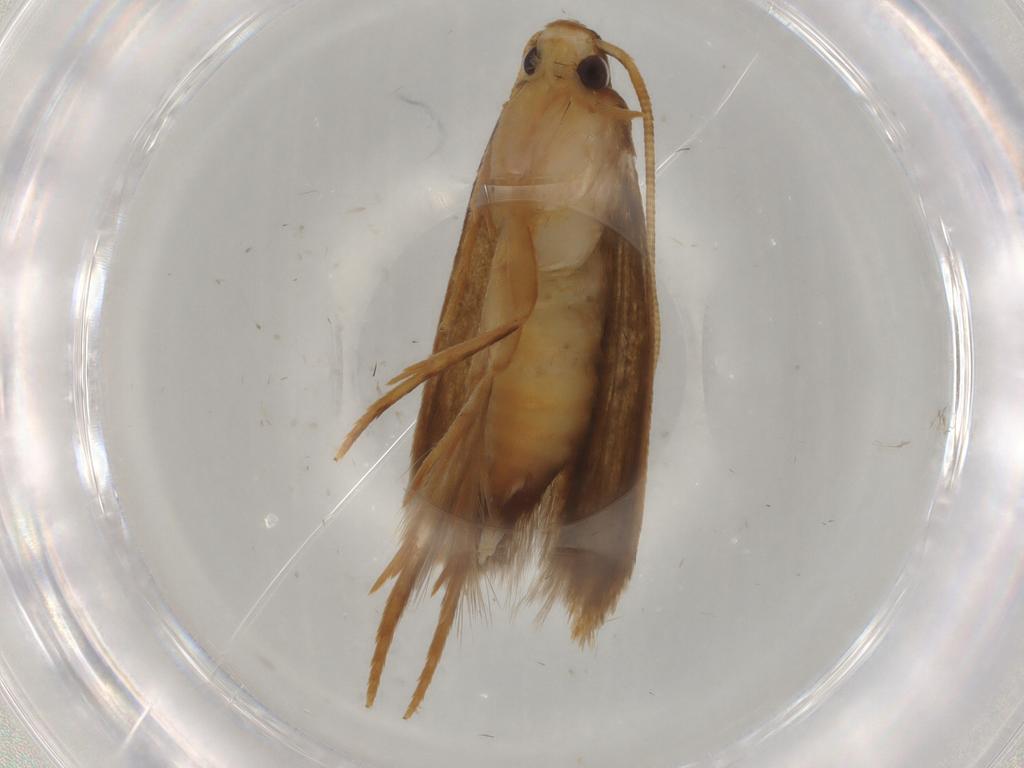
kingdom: Animalia
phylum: Arthropoda
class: Insecta
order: Lepidoptera
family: Tineidae
